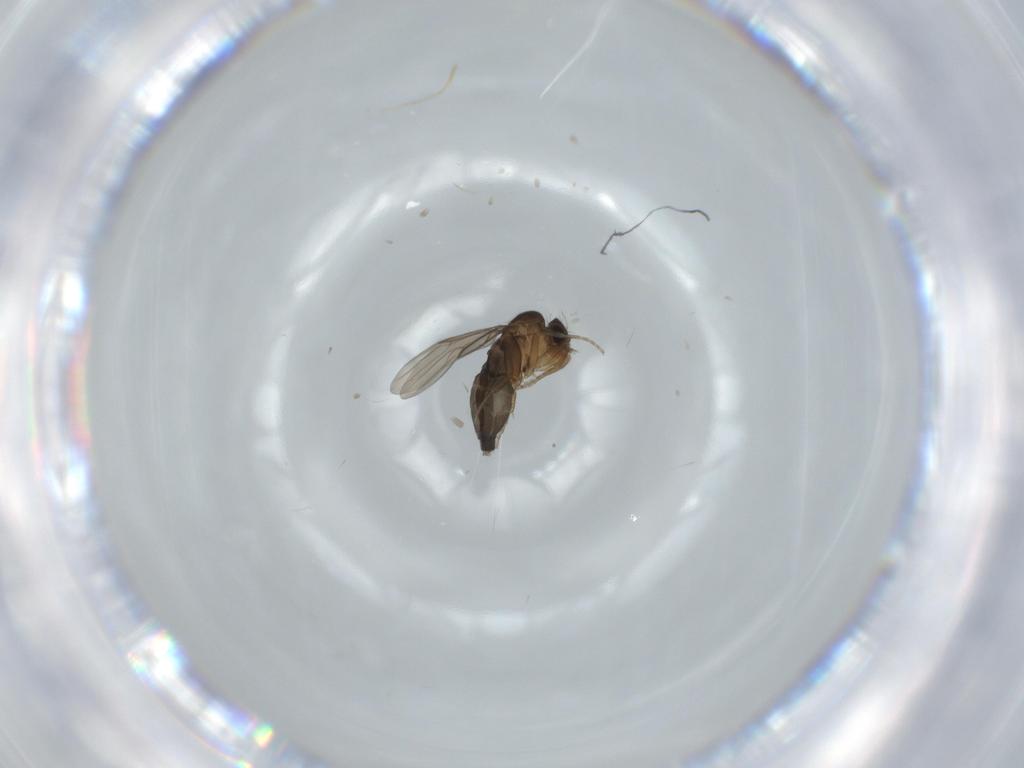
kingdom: Animalia
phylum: Arthropoda
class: Insecta
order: Diptera
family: Phoridae
